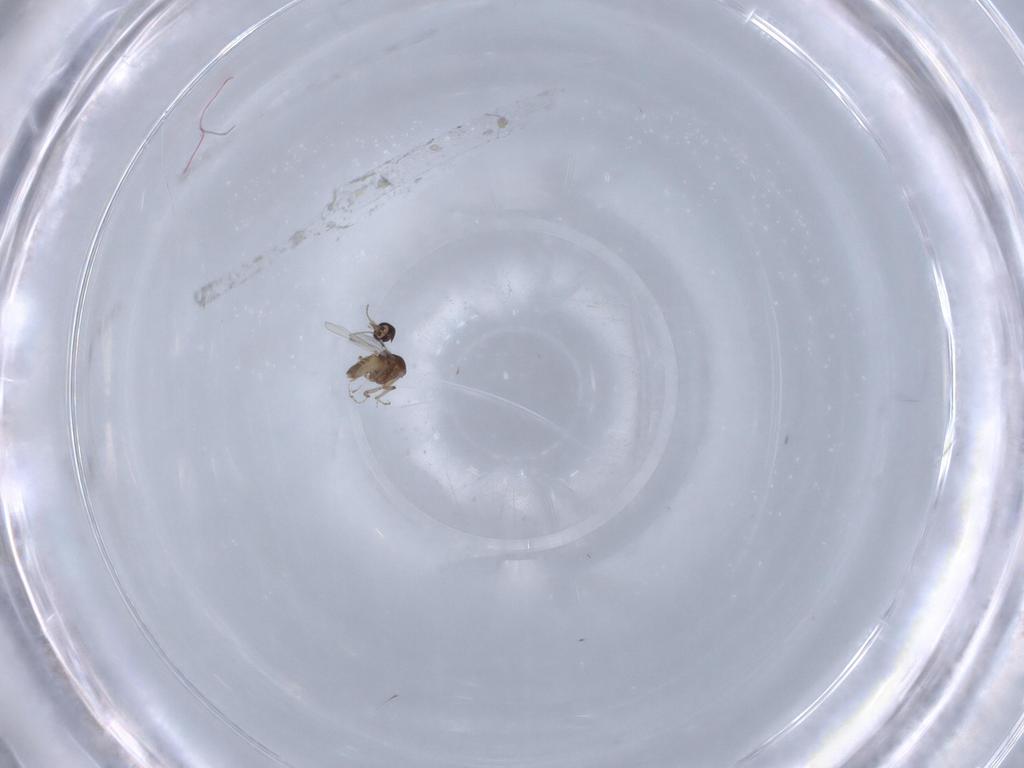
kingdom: Animalia
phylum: Arthropoda
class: Insecta
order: Diptera
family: Ceratopogonidae
